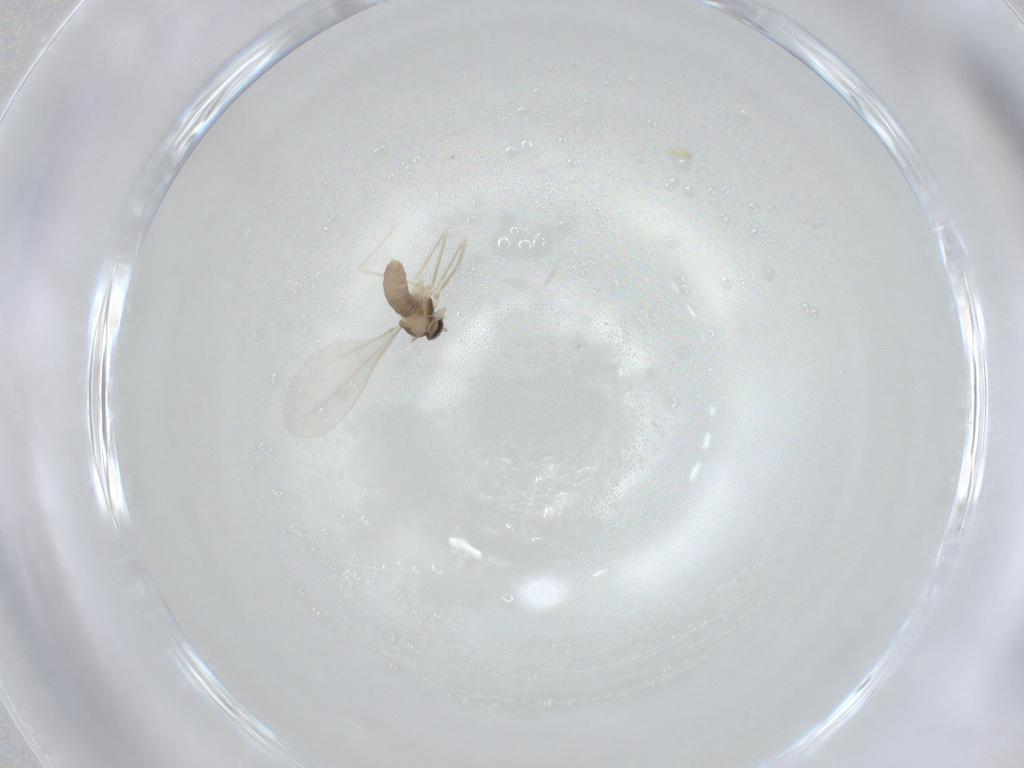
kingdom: Animalia
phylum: Arthropoda
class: Insecta
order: Diptera
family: Cecidomyiidae
